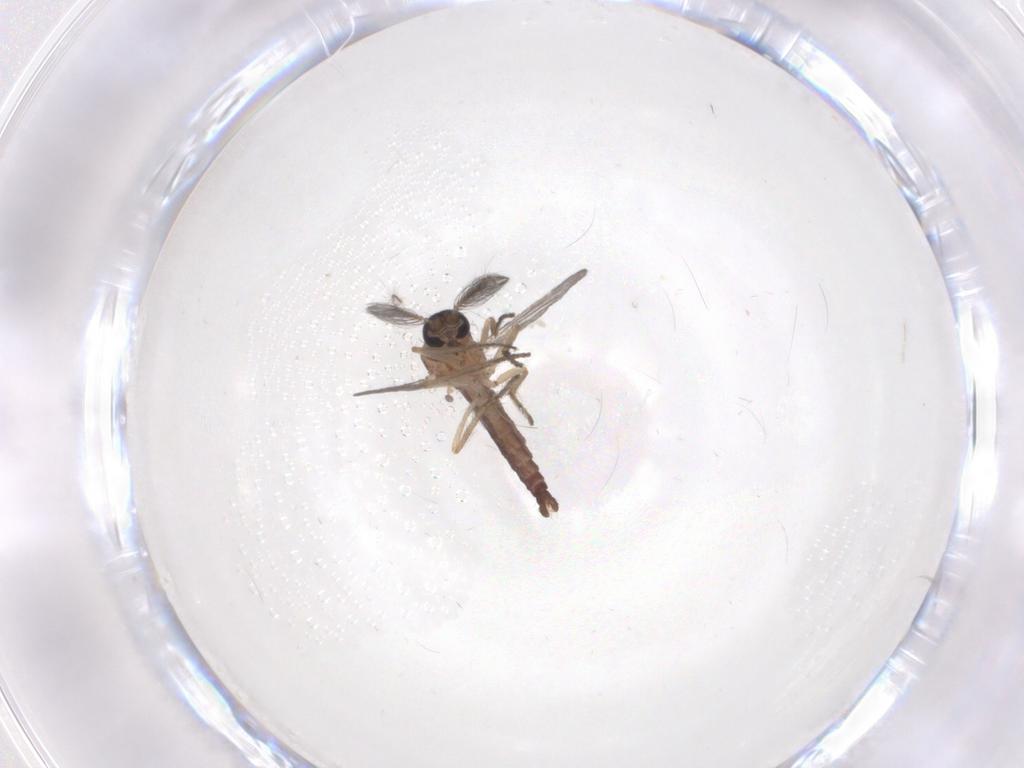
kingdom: Animalia
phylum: Arthropoda
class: Insecta
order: Diptera
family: Ceratopogonidae
